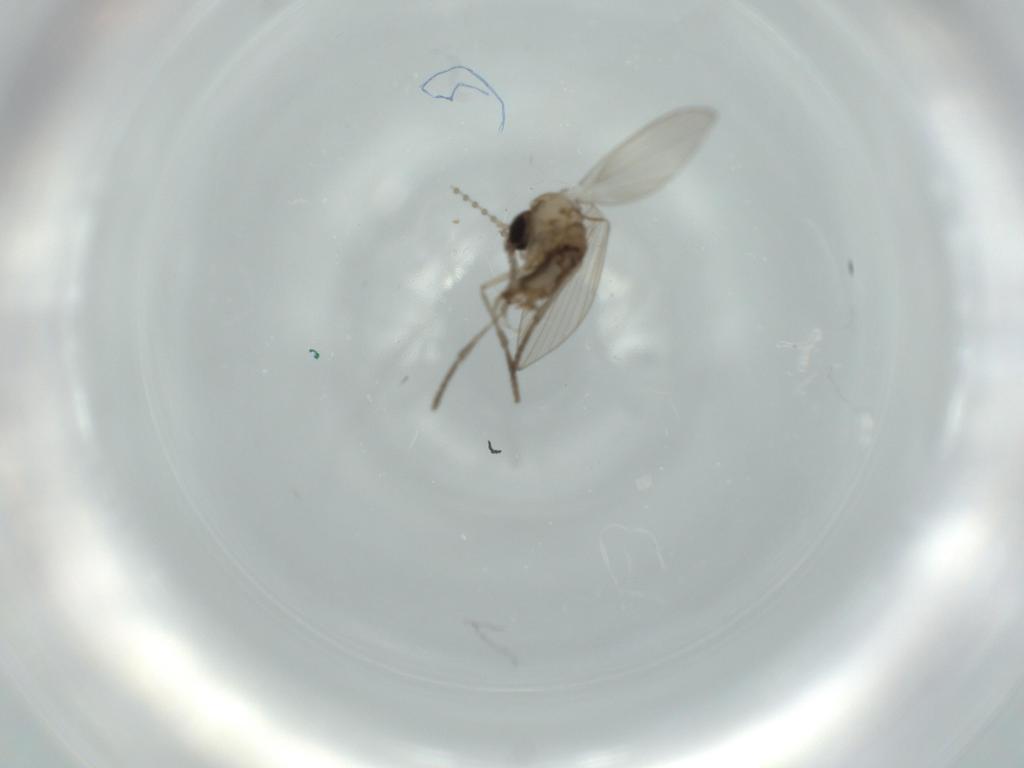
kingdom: Animalia
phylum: Arthropoda
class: Insecta
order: Diptera
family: Psychodidae
